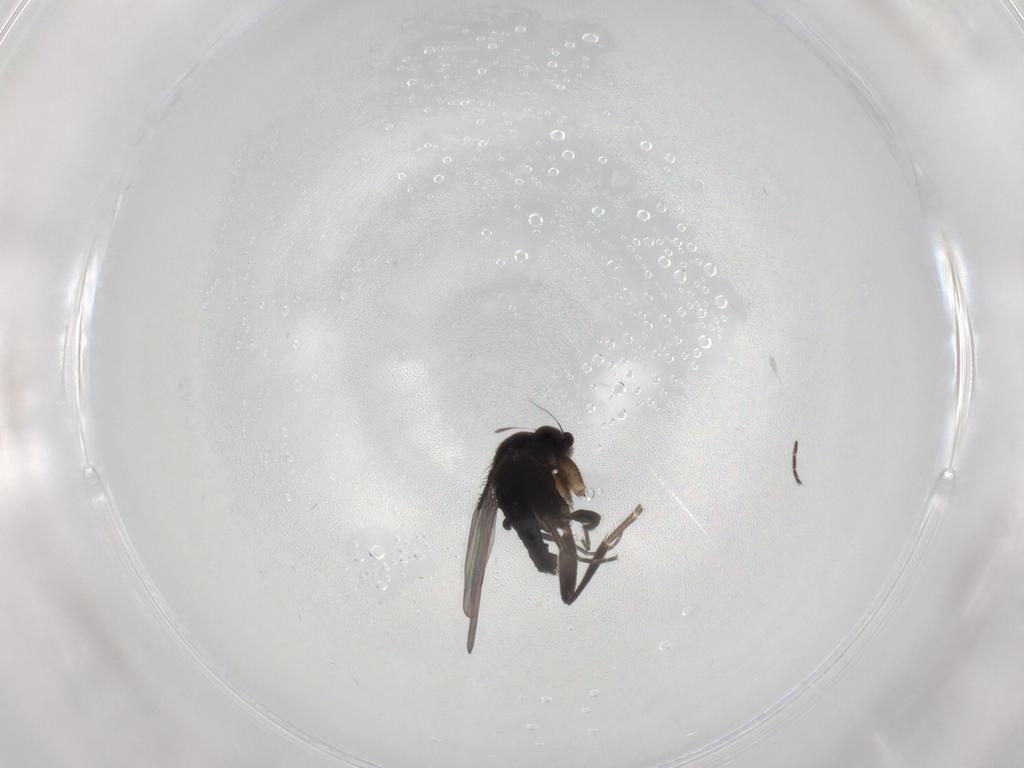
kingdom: Animalia
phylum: Arthropoda
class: Insecta
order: Diptera
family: Phoridae
